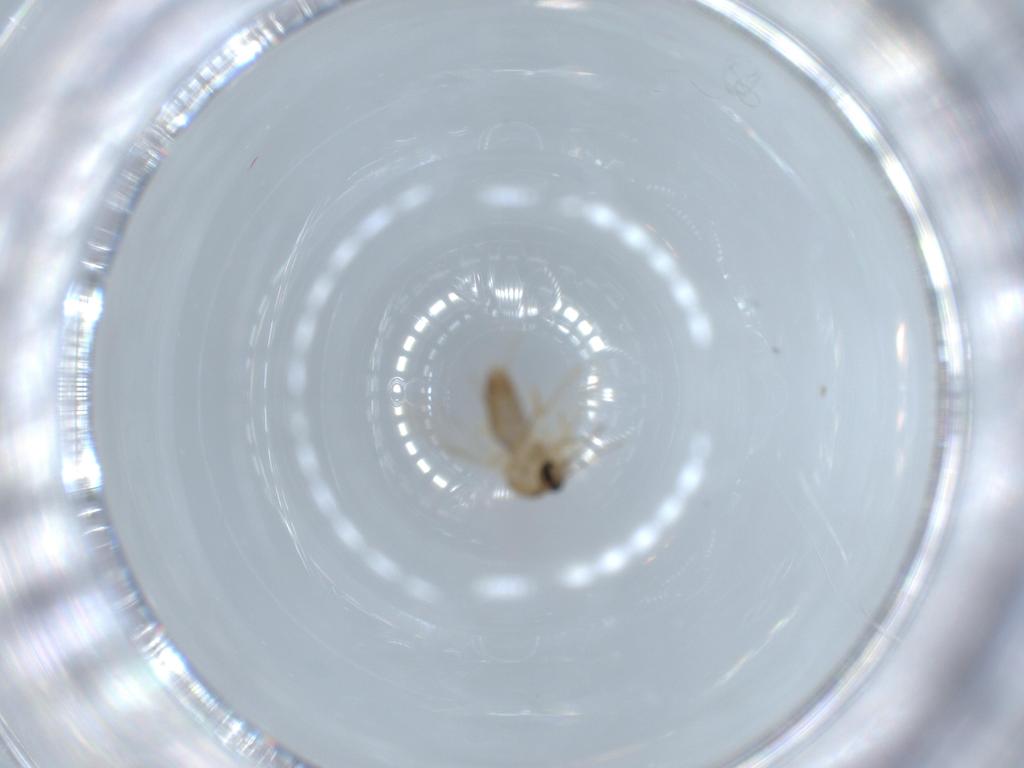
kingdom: Animalia
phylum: Arthropoda
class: Insecta
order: Diptera
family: Ceratopogonidae
